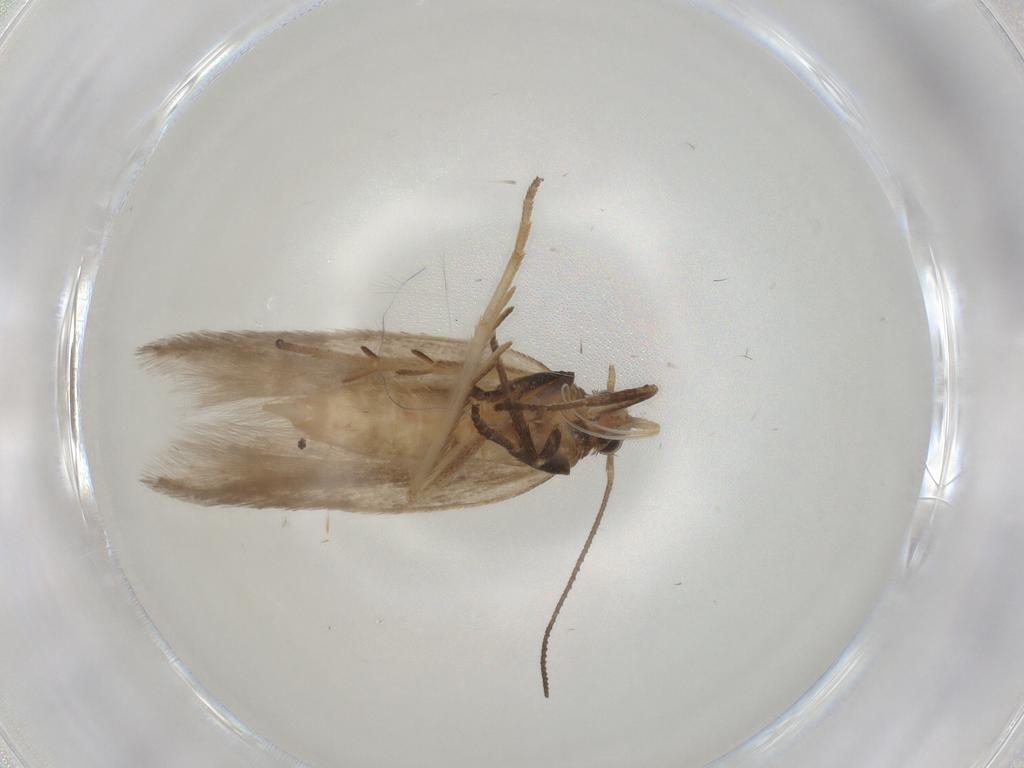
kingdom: Animalia
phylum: Arthropoda
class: Insecta
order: Lepidoptera
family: Gelechiidae
